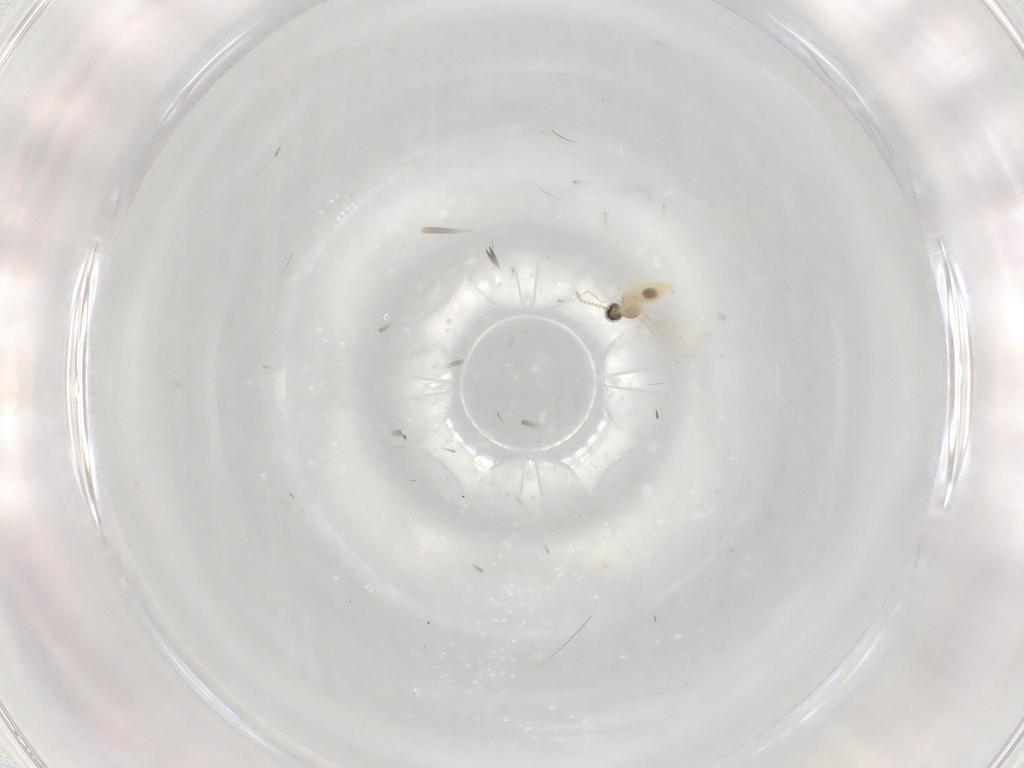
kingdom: Animalia
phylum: Arthropoda
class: Insecta
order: Diptera
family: Cecidomyiidae
